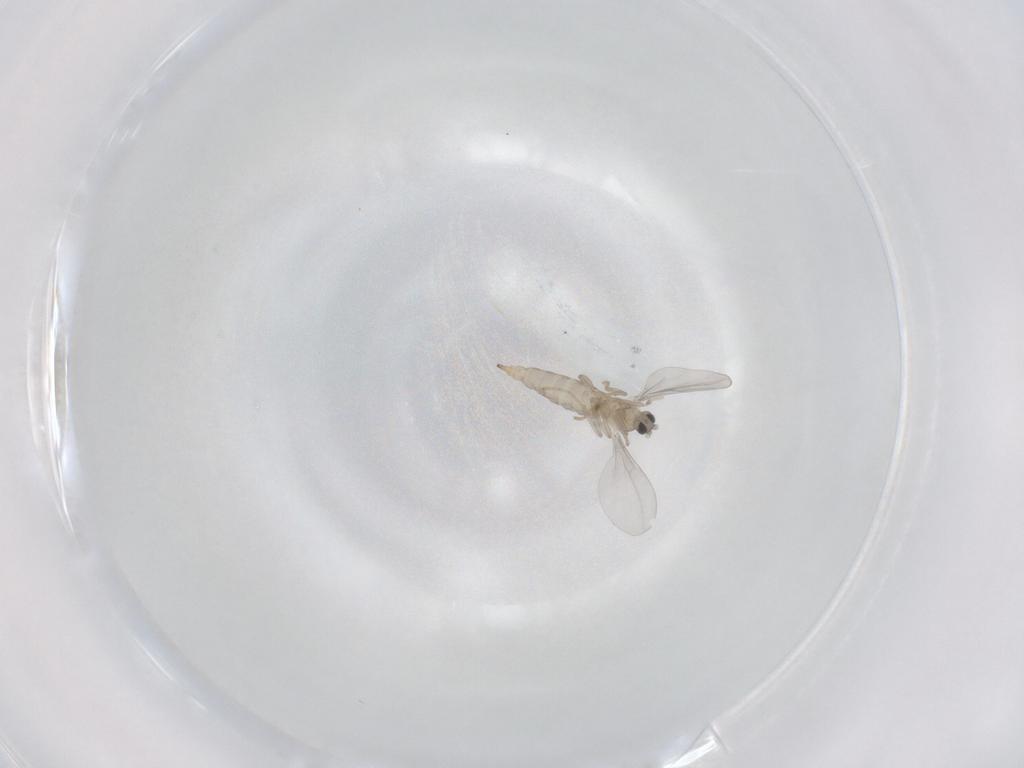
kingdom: Animalia
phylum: Arthropoda
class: Insecta
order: Diptera
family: Cecidomyiidae
